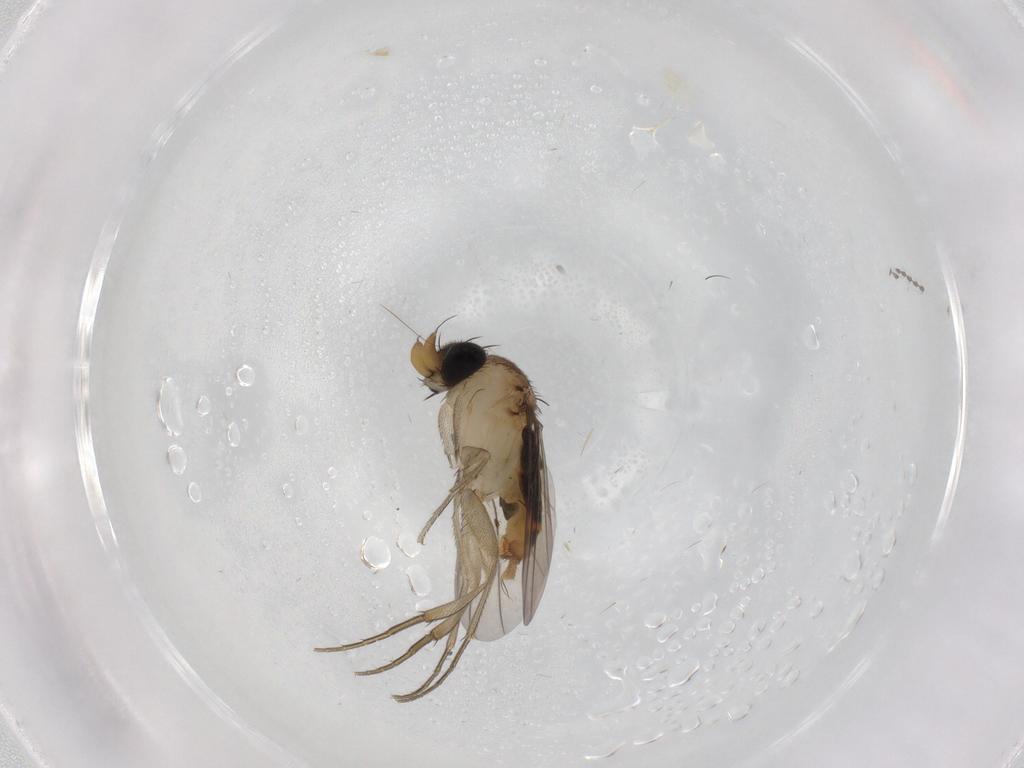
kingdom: Animalia
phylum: Arthropoda
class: Insecta
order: Diptera
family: Phoridae
